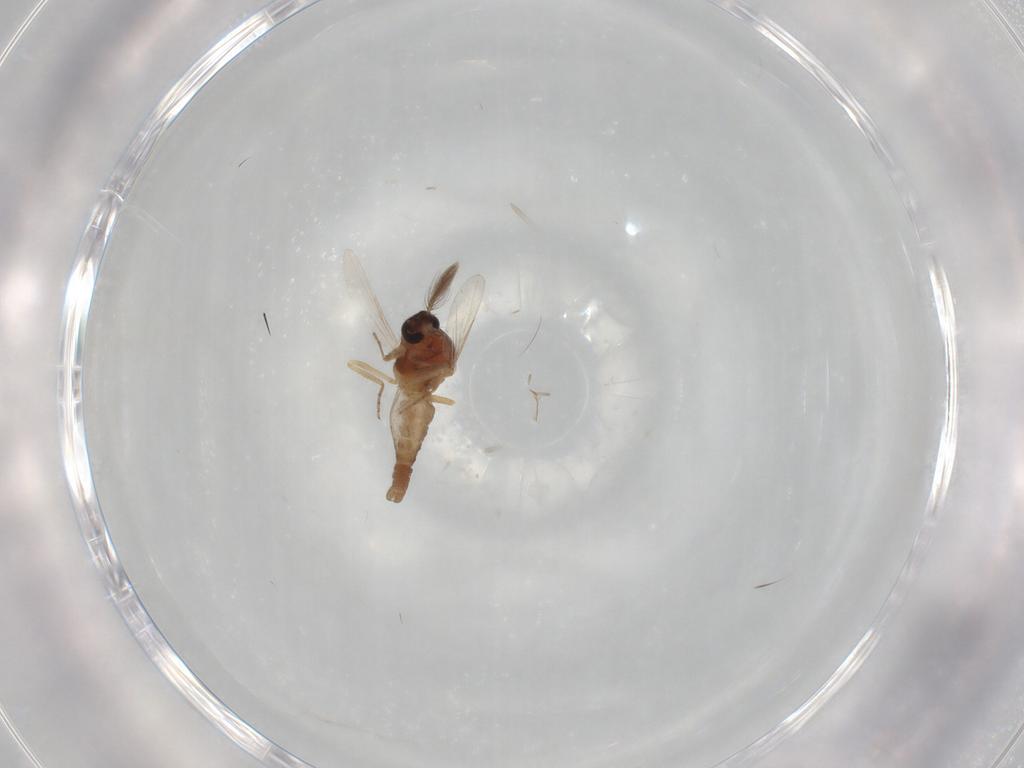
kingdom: Animalia
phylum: Arthropoda
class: Insecta
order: Diptera
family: Ceratopogonidae
